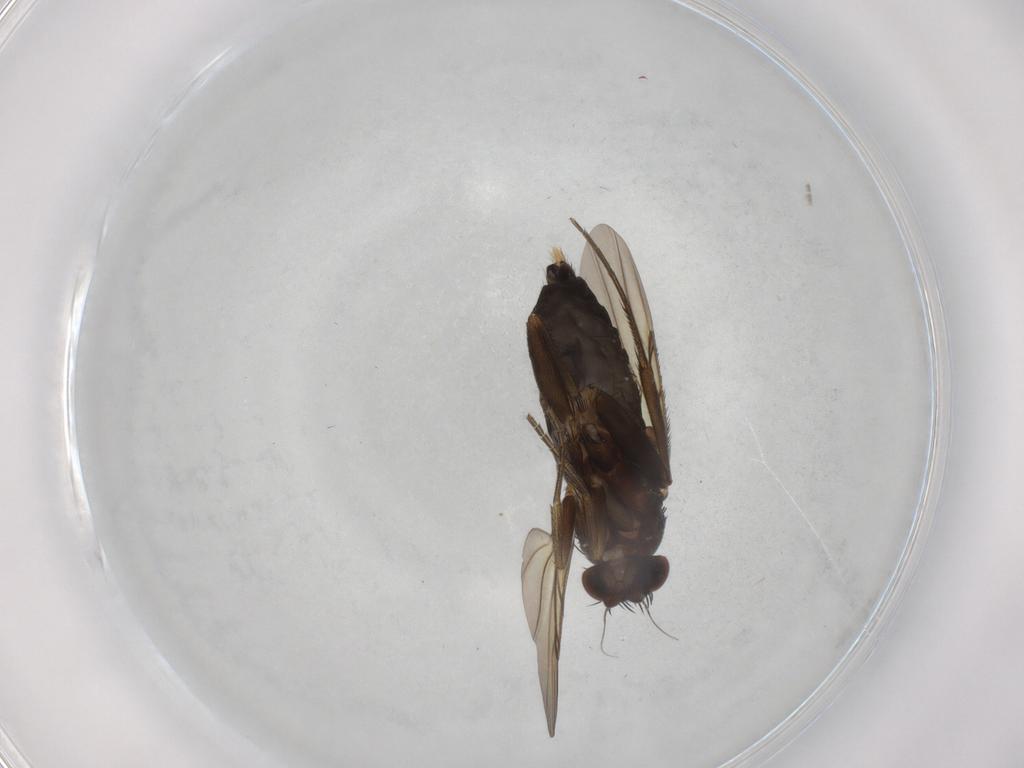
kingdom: Animalia
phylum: Arthropoda
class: Insecta
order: Diptera
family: Phoridae
